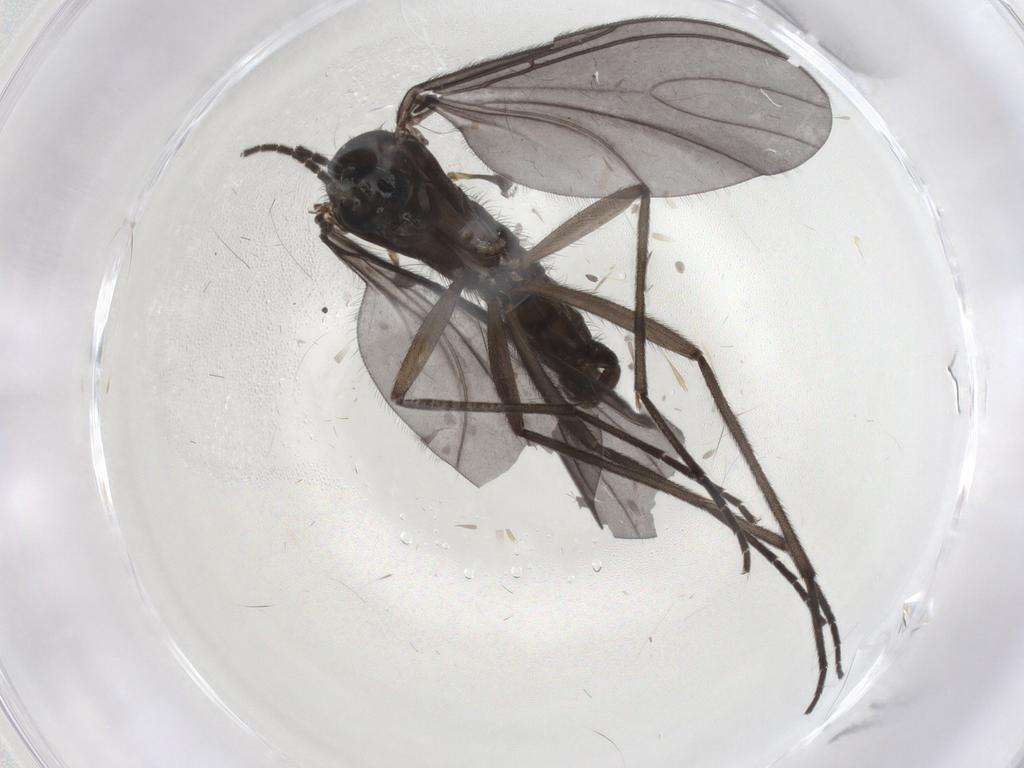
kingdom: Animalia
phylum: Arthropoda
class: Insecta
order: Diptera
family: Sciaridae
